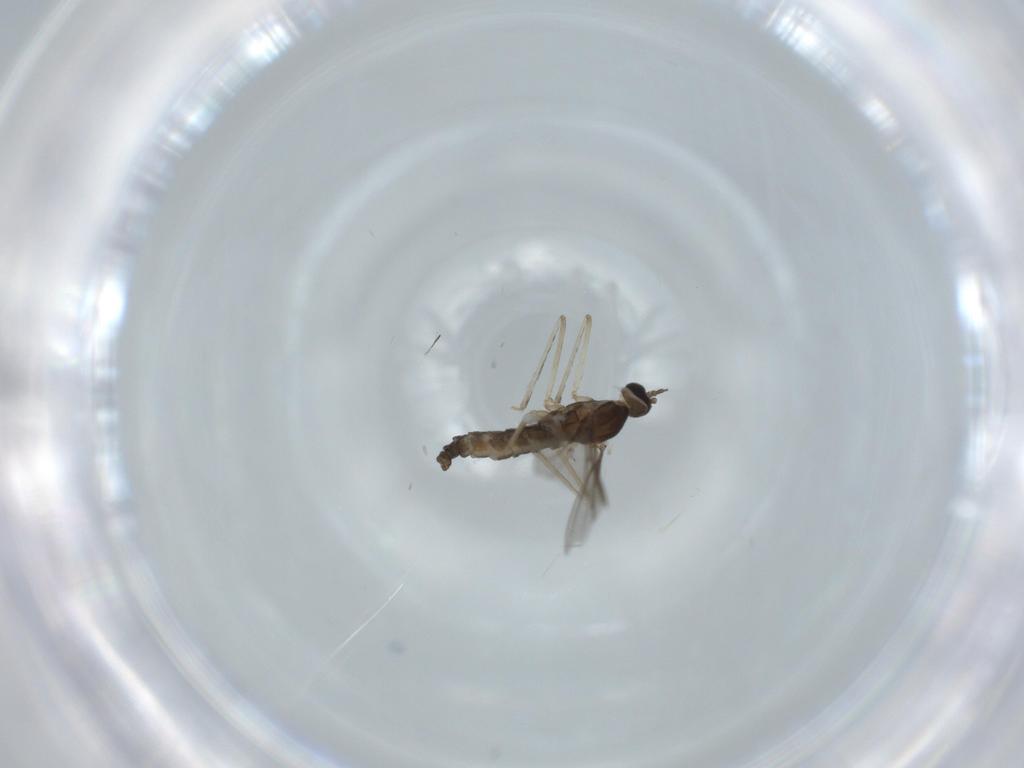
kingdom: Animalia
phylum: Arthropoda
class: Insecta
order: Diptera
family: Cecidomyiidae
